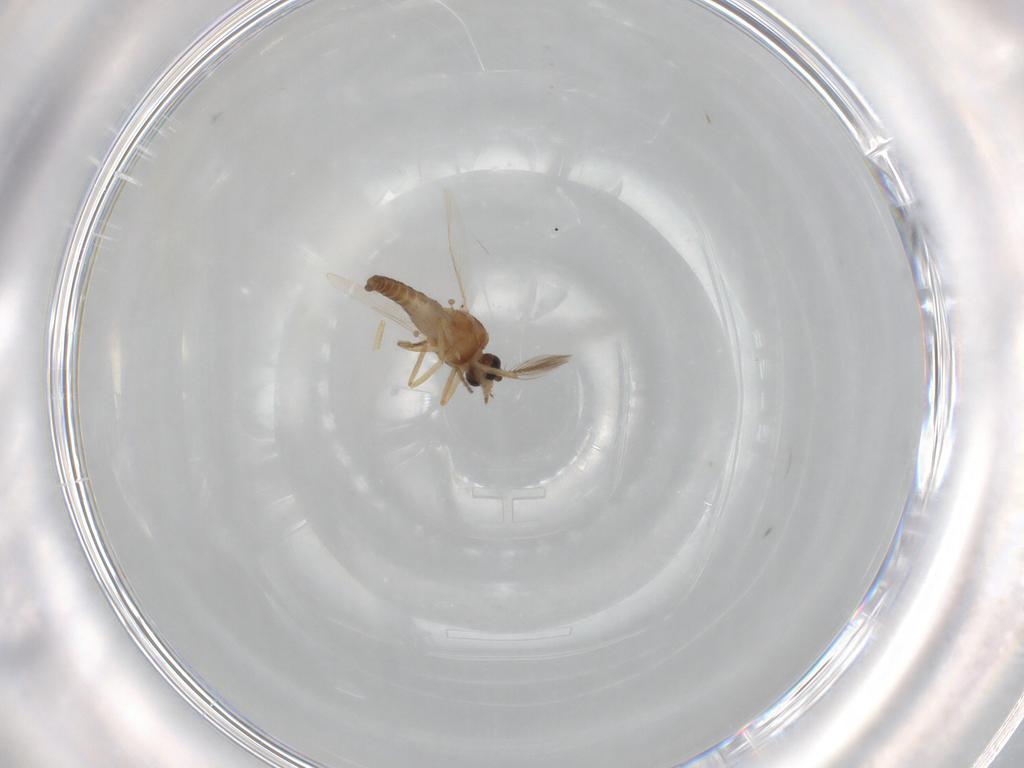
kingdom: Animalia
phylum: Arthropoda
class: Insecta
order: Diptera
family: Ceratopogonidae
